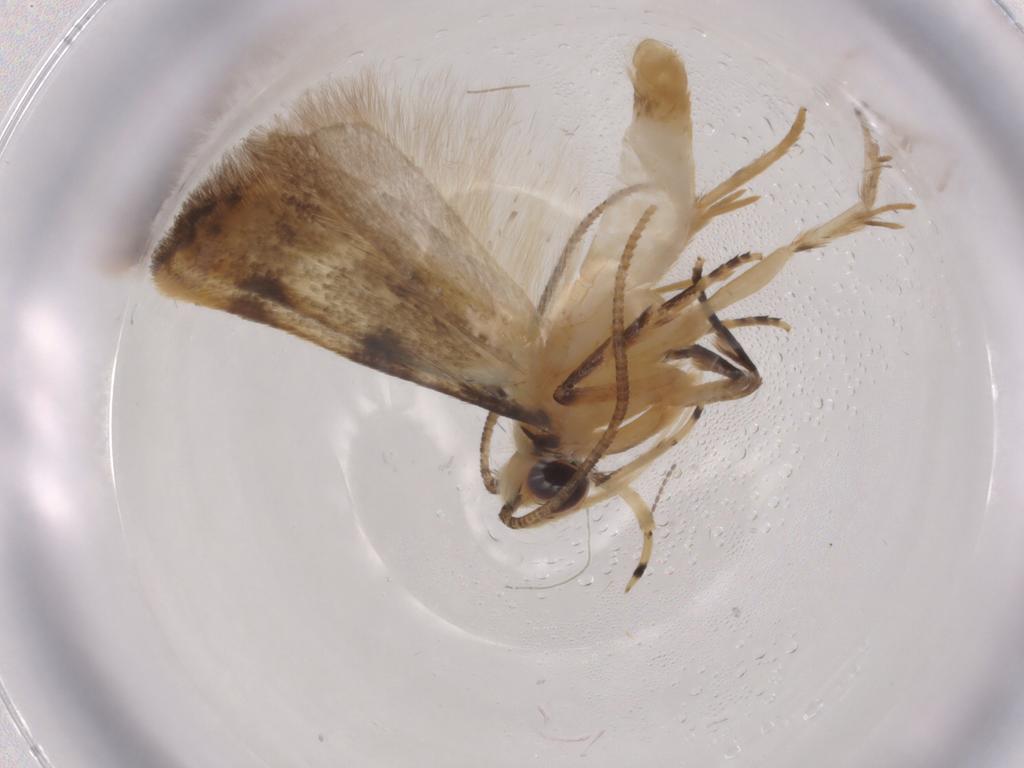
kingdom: Animalia
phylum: Arthropoda
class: Insecta
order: Lepidoptera
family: Autostichidae
